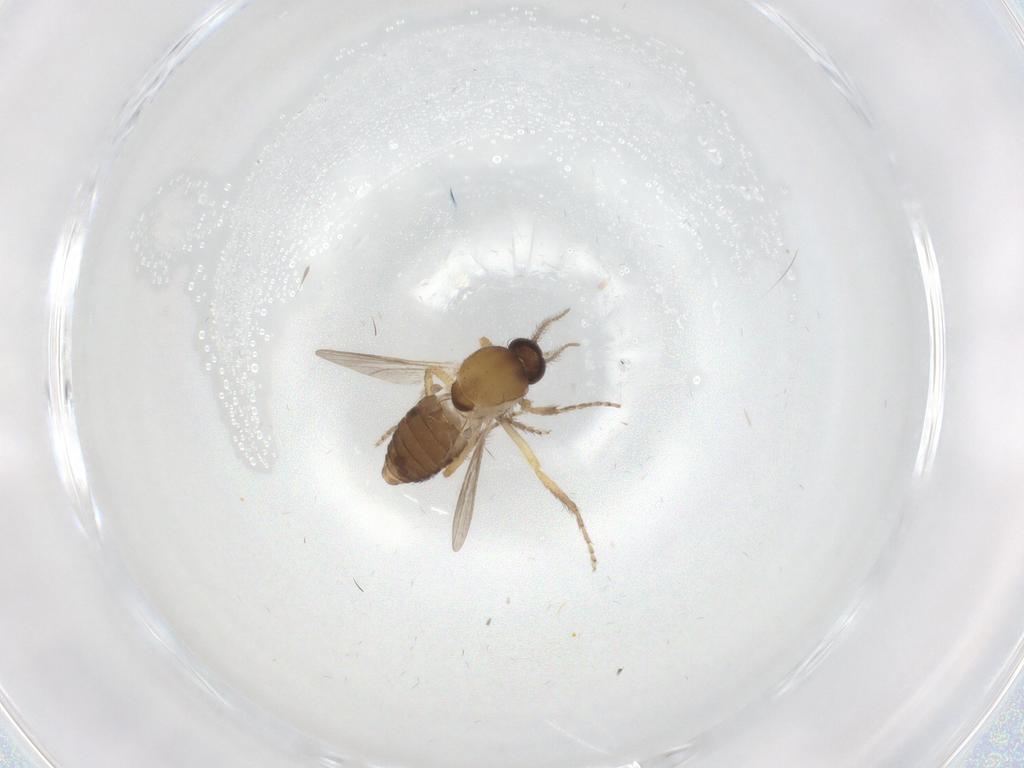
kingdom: Animalia
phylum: Arthropoda
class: Insecta
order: Diptera
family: Ceratopogonidae
